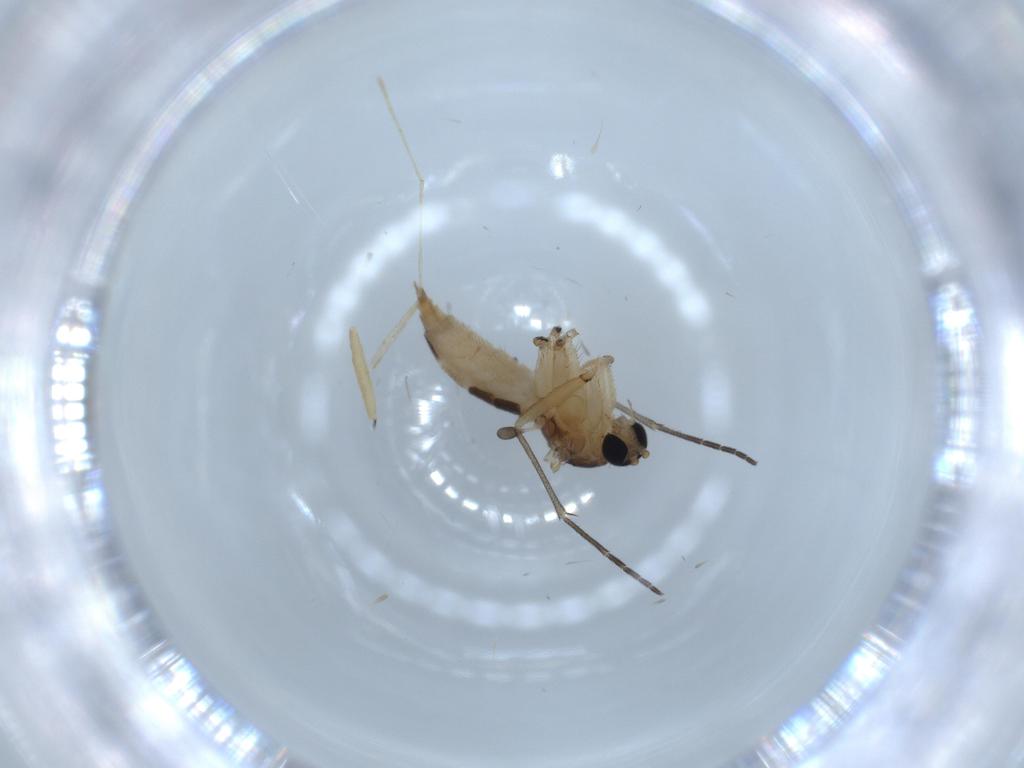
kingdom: Animalia
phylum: Arthropoda
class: Insecta
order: Diptera
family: Sciaridae
